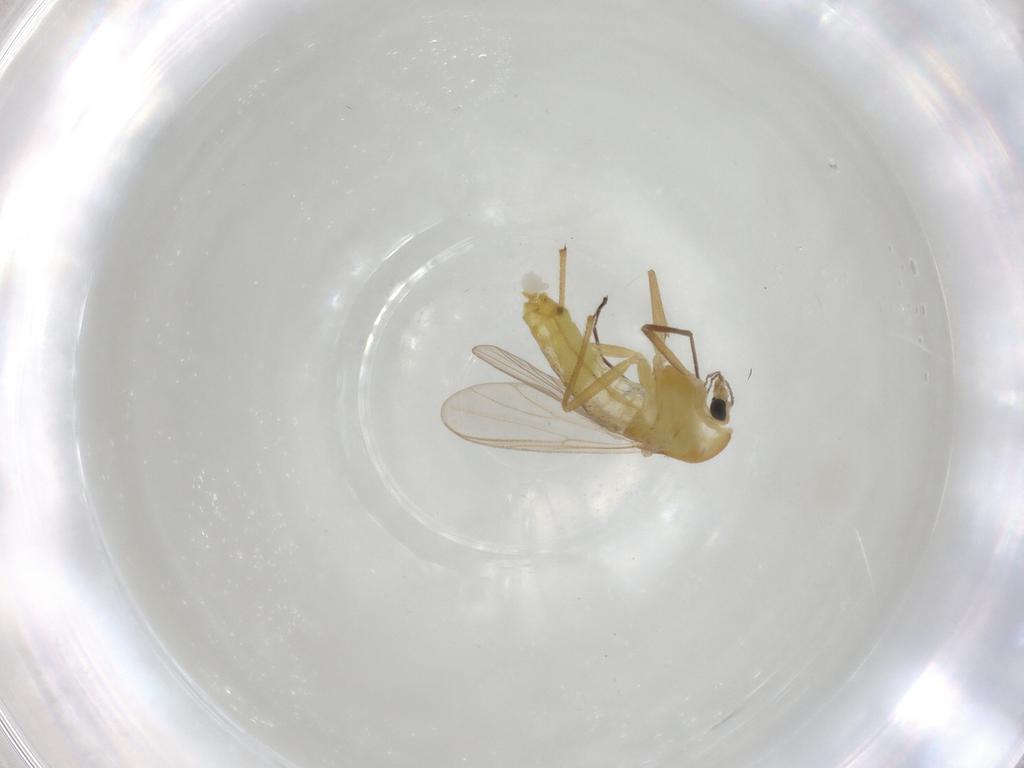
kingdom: Animalia
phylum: Arthropoda
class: Insecta
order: Diptera
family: Chironomidae
